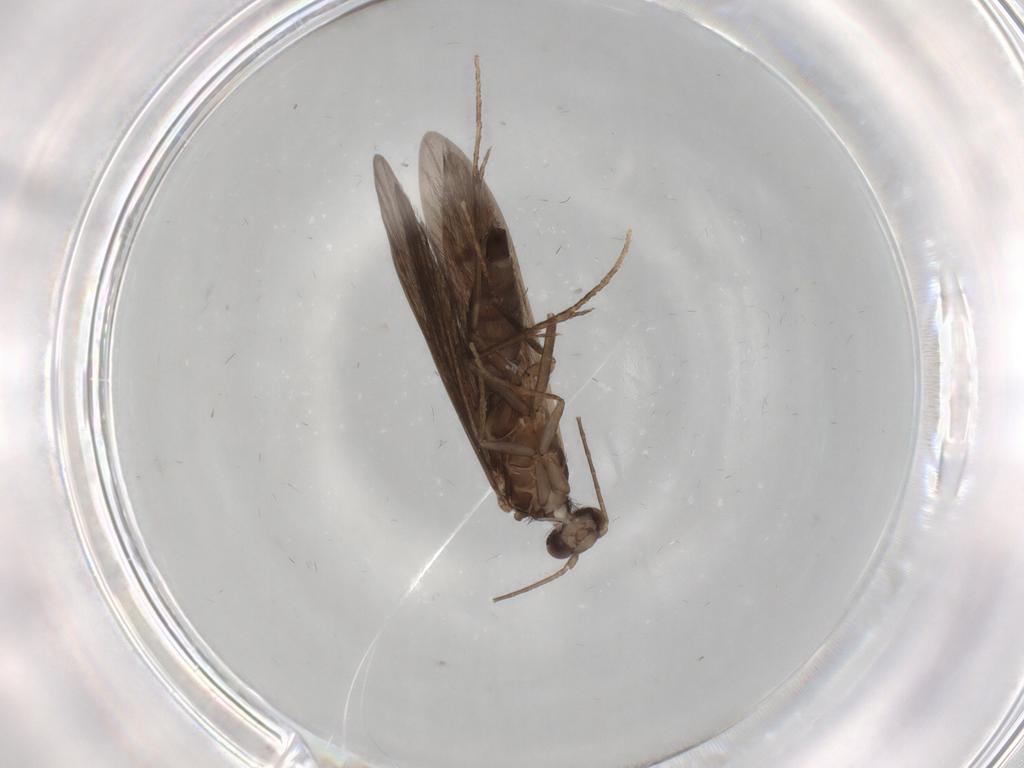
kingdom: Animalia
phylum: Arthropoda
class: Insecta
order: Trichoptera
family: Xiphocentronidae
